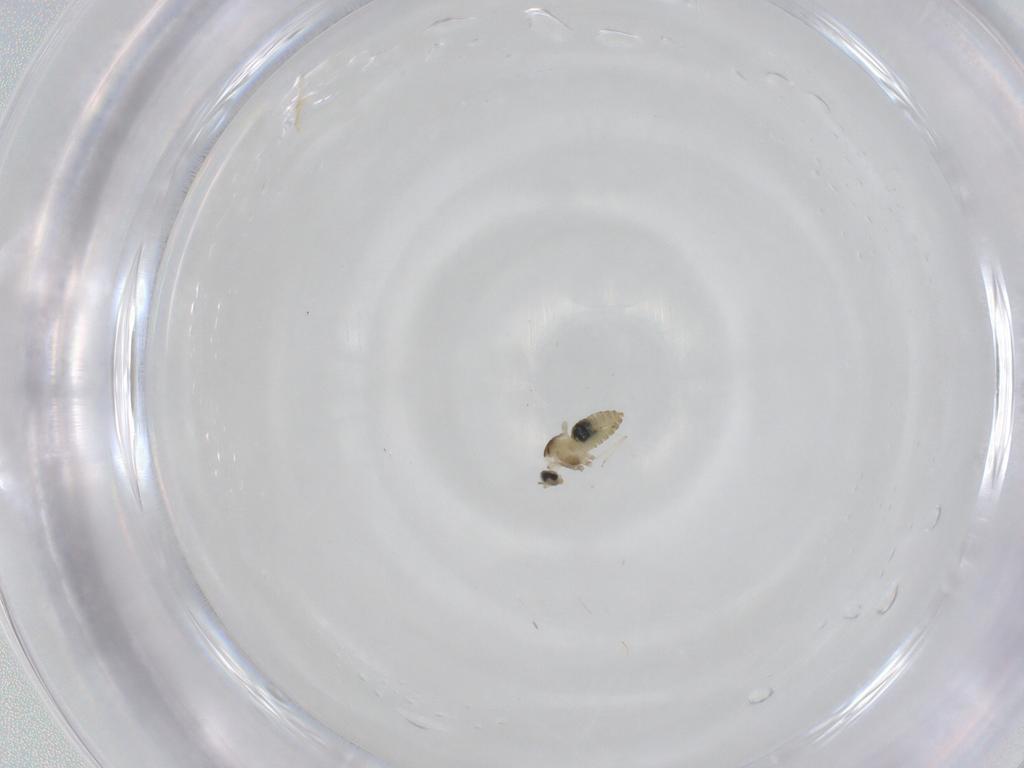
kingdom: Animalia
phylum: Arthropoda
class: Insecta
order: Diptera
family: Cecidomyiidae
